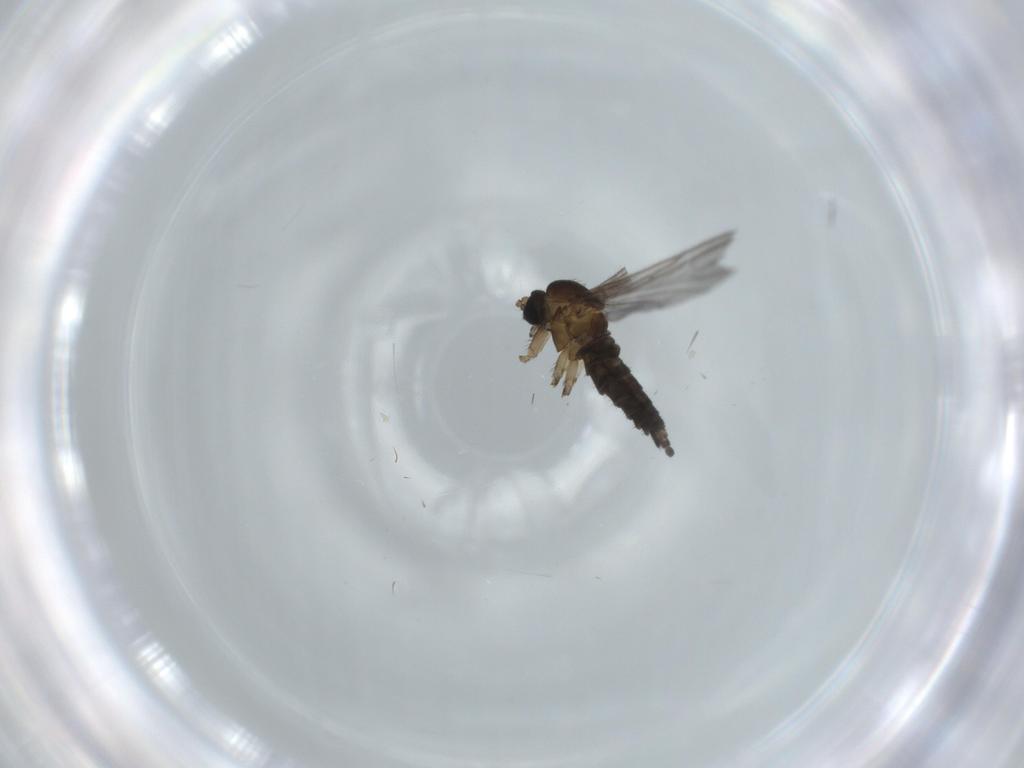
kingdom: Animalia
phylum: Arthropoda
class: Insecta
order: Diptera
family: Sciaridae
